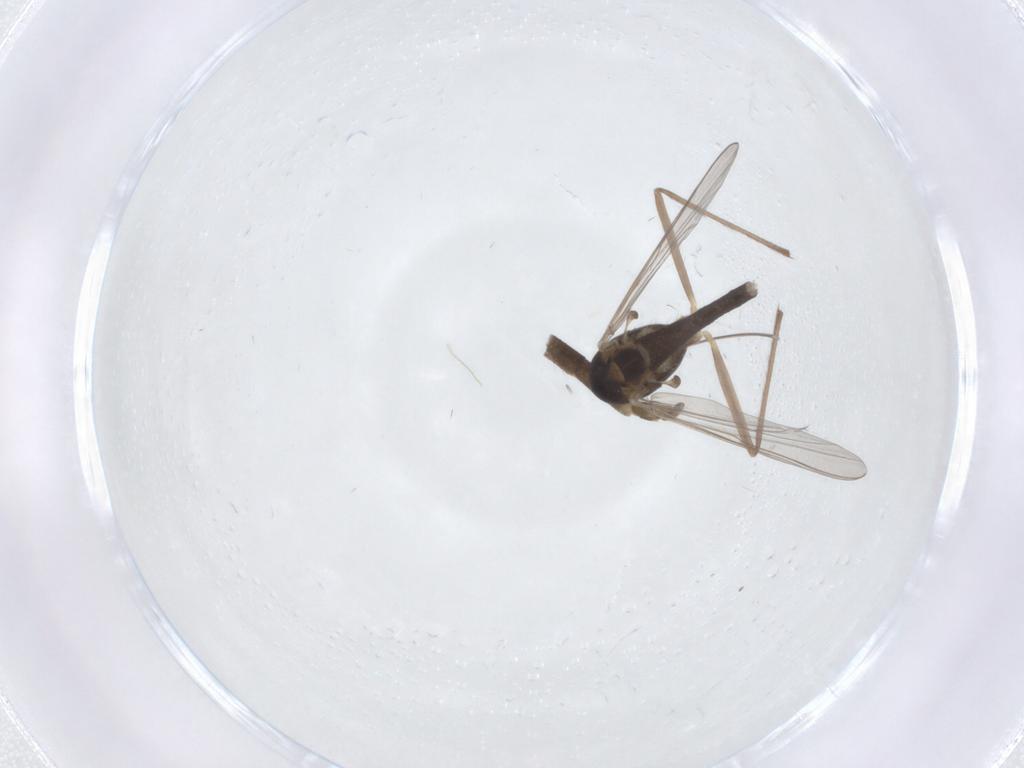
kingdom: Animalia
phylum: Arthropoda
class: Insecta
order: Diptera
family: Chironomidae
